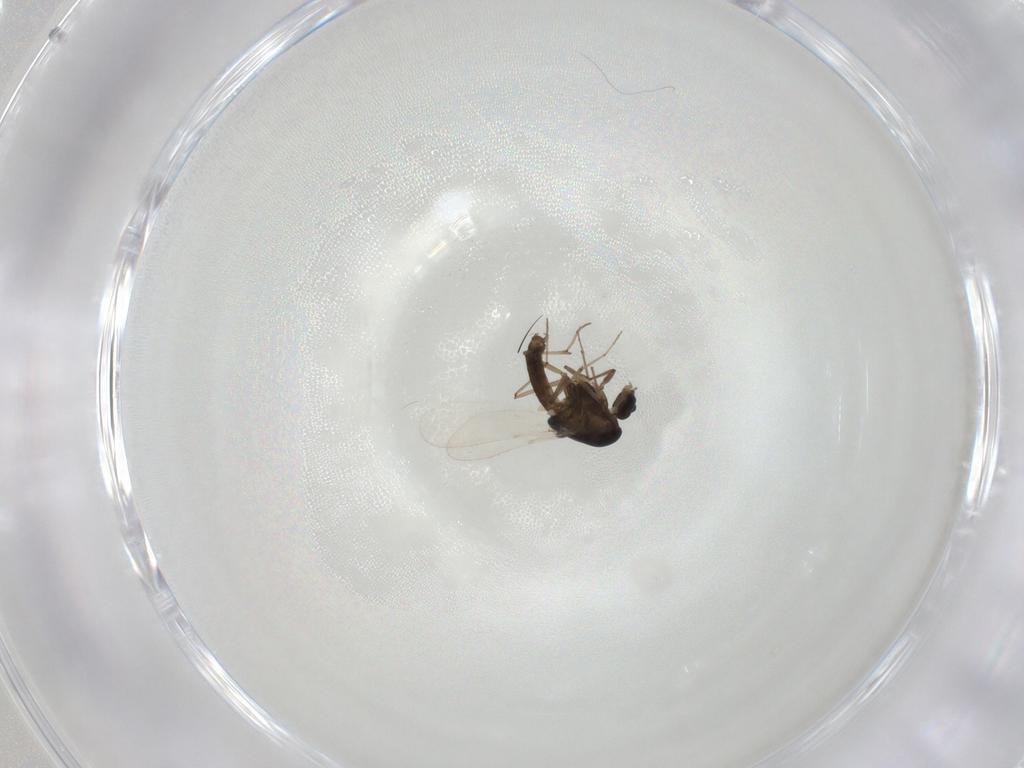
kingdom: Animalia
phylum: Arthropoda
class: Insecta
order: Diptera
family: Chironomidae
